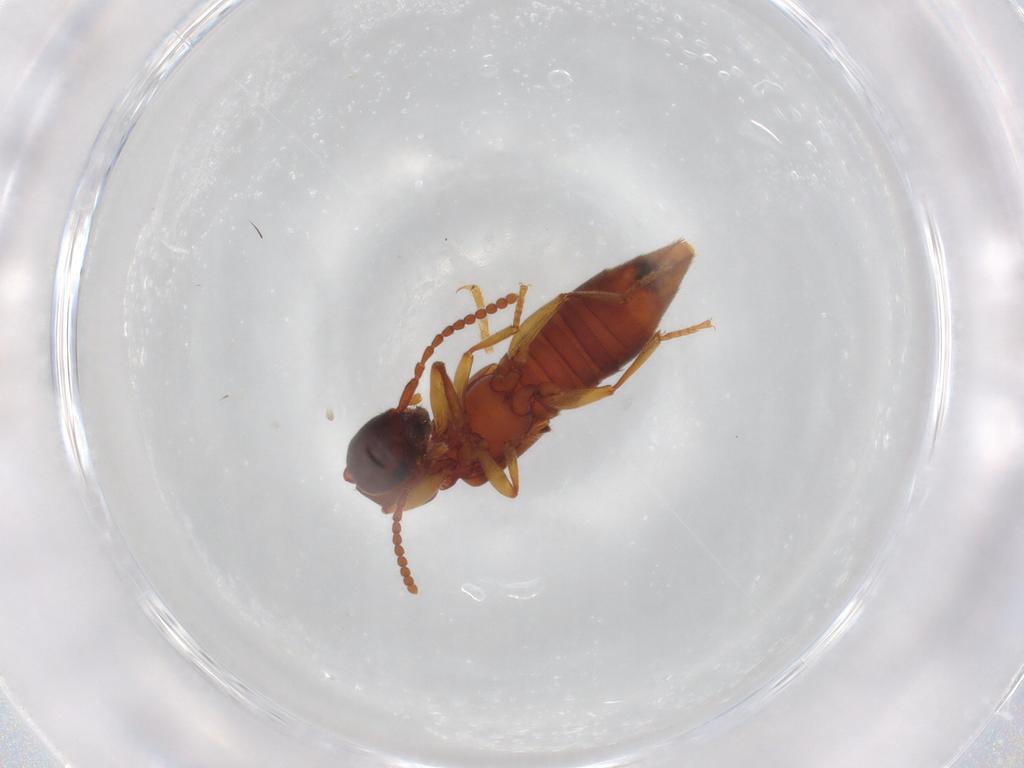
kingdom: Animalia
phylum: Arthropoda
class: Insecta
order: Coleoptera
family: Staphylinidae
